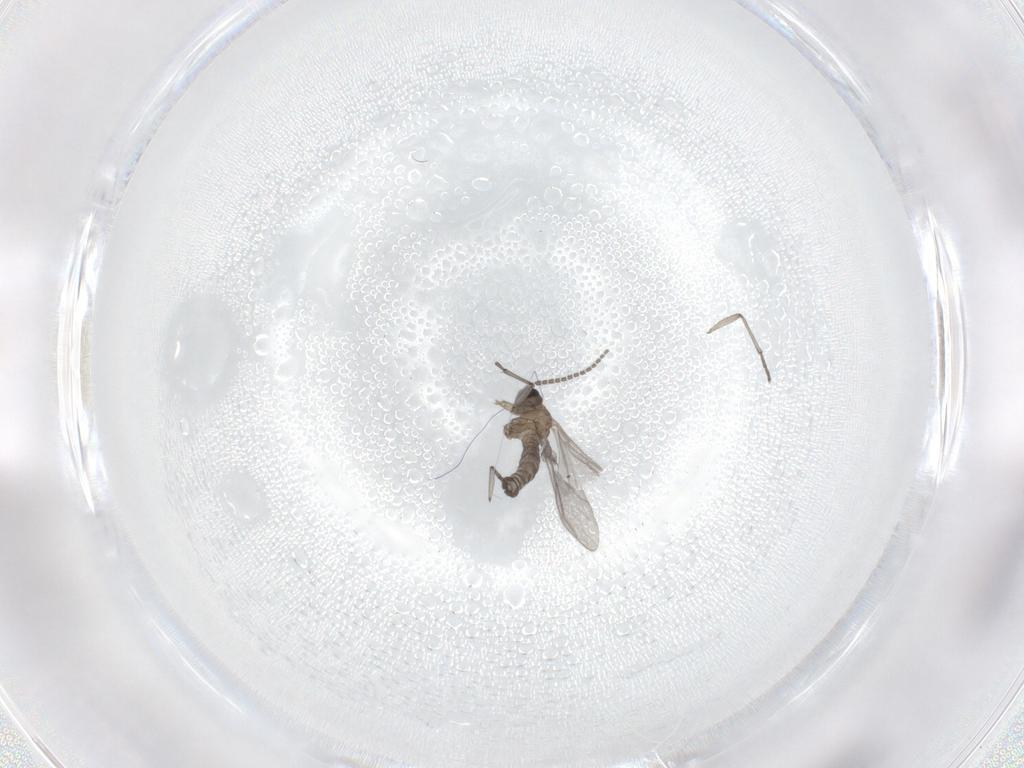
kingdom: Animalia
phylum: Arthropoda
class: Insecta
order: Diptera
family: Sciaridae
